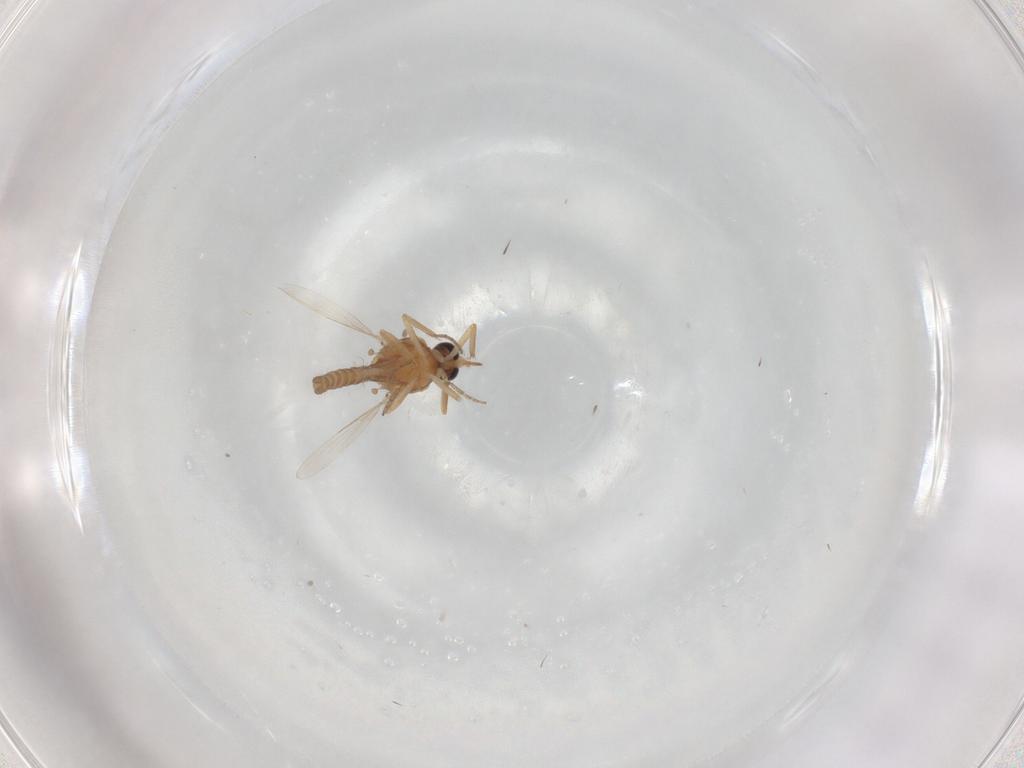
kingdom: Animalia
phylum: Arthropoda
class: Insecta
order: Diptera
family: Ceratopogonidae
